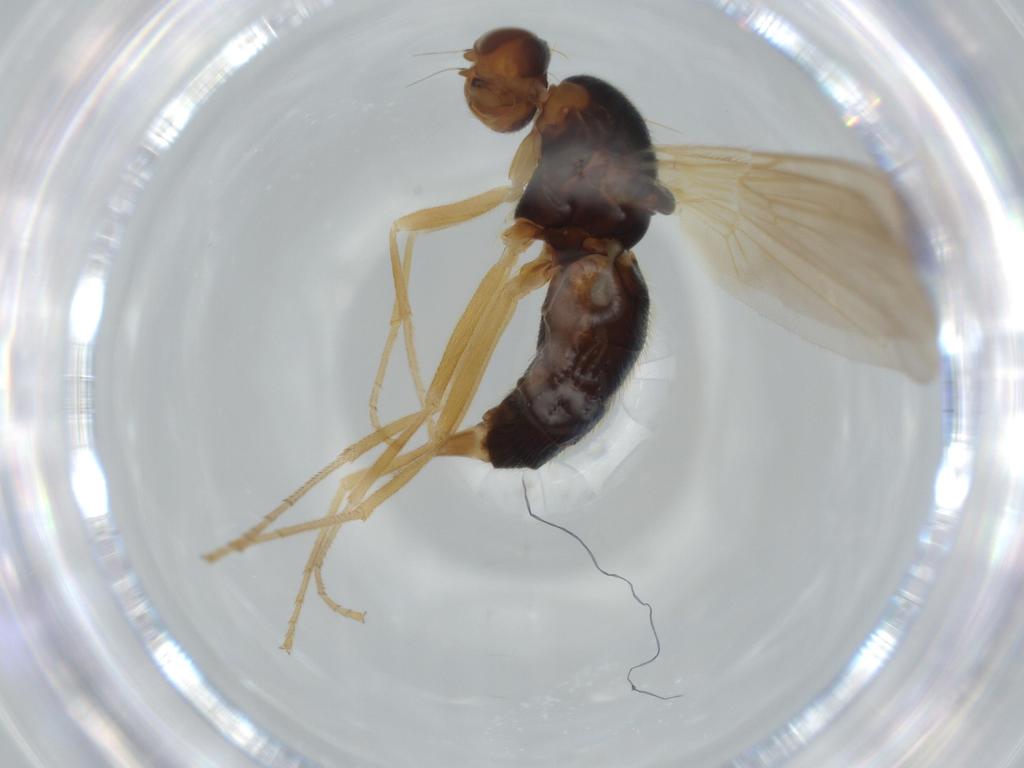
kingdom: Animalia
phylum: Arthropoda
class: Insecta
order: Diptera
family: Psilidae
